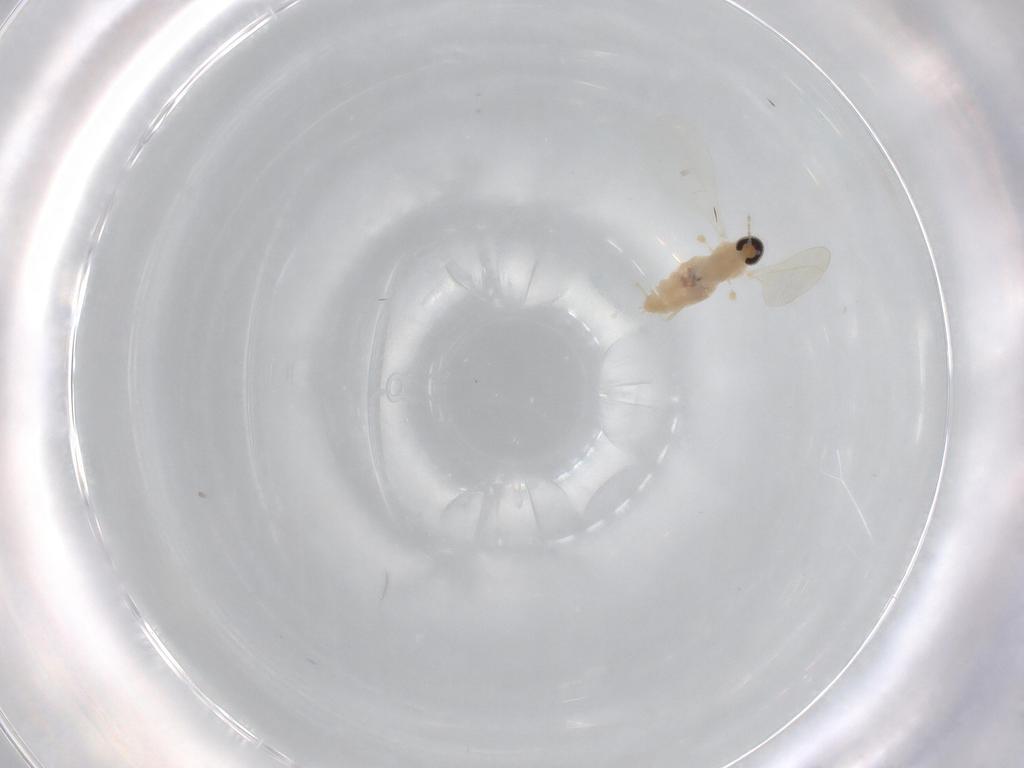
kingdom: Animalia
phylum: Arthropoda
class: Insecta
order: Diptera
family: Cecidomyiidae
